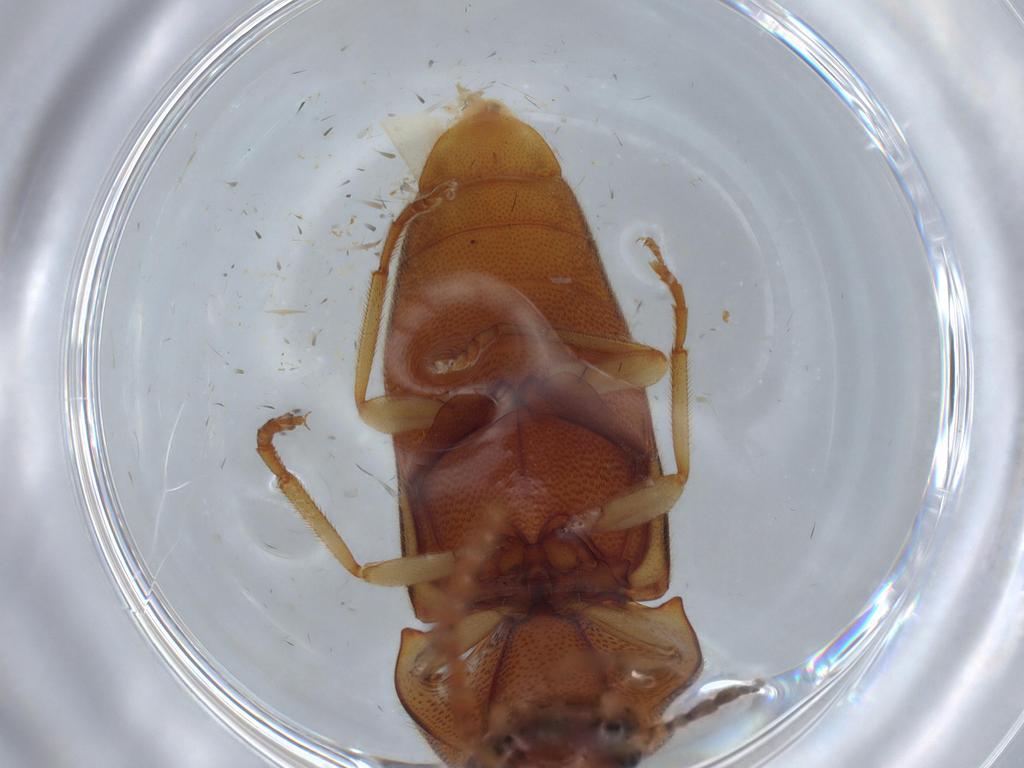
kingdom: Animalia
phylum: Arthropoda
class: Insecta
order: Coleoptera
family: Elateridae
